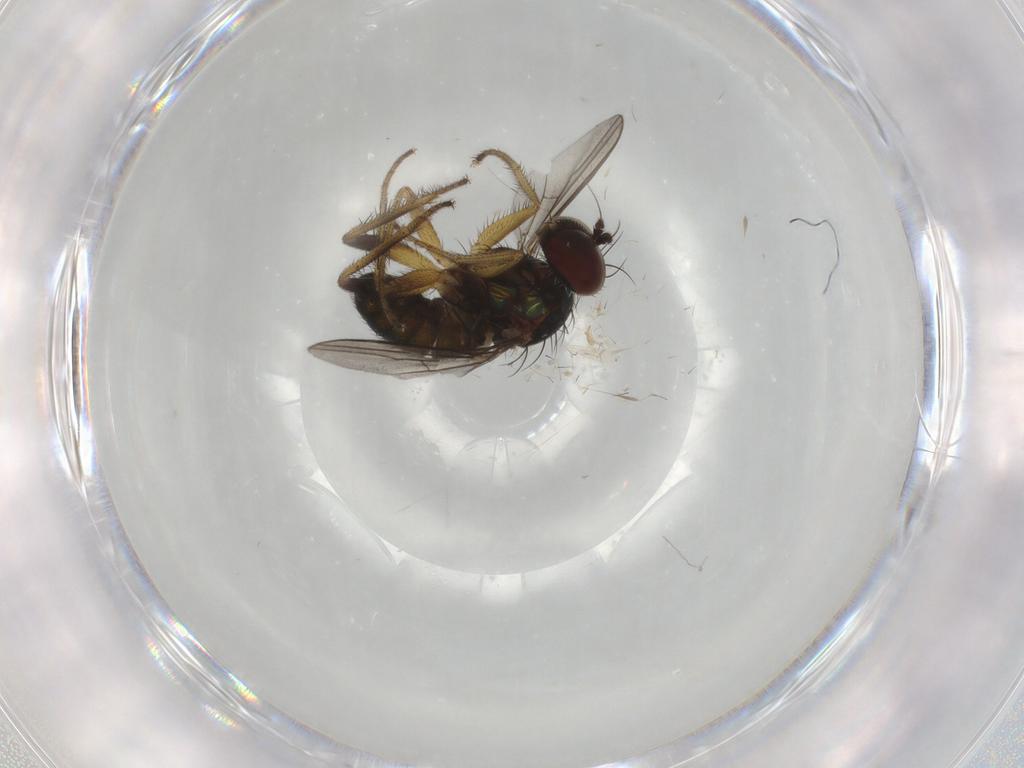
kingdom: Animalia
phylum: Arthropoda
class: Insecta
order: Diptera
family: Dolichopodidae
